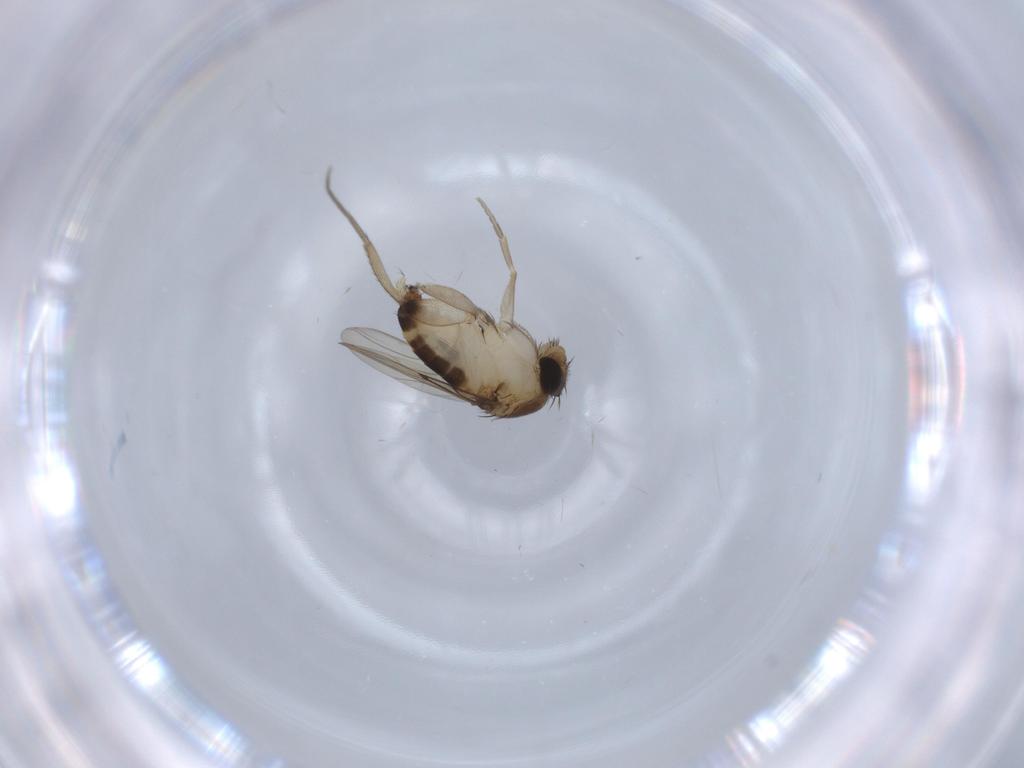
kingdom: Animalia
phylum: Arthropoda
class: Insecta
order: Diptera
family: Phoridae
